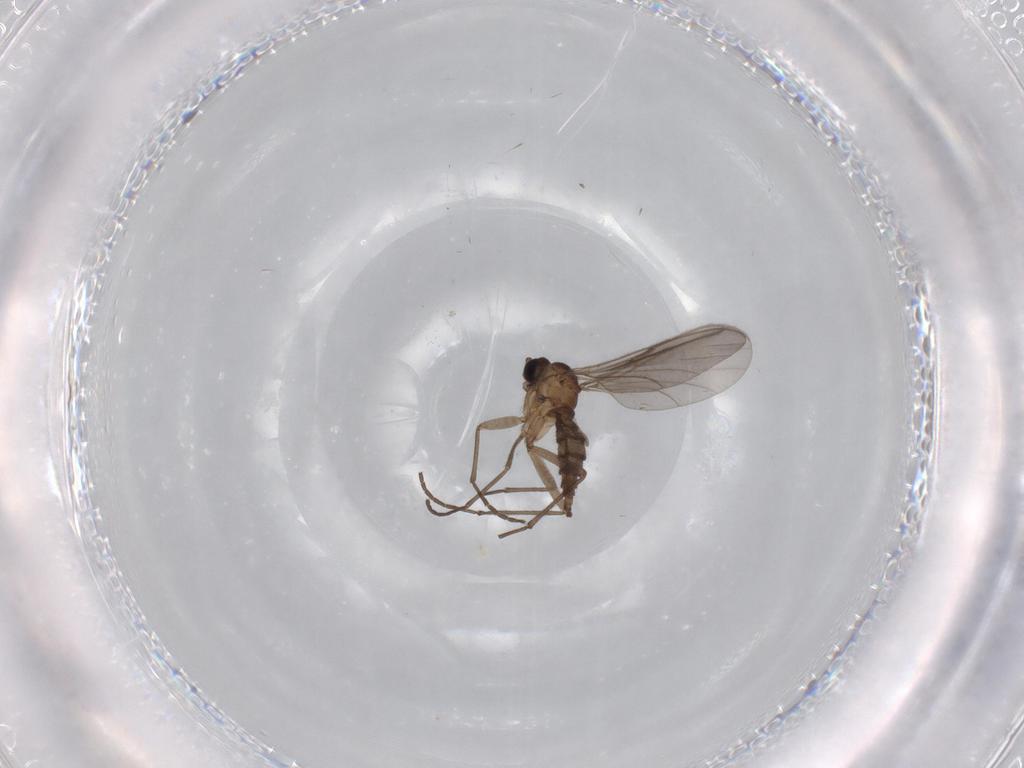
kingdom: Animalia
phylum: Arthropoda
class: Insecta
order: Diptera
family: Sciaridae
